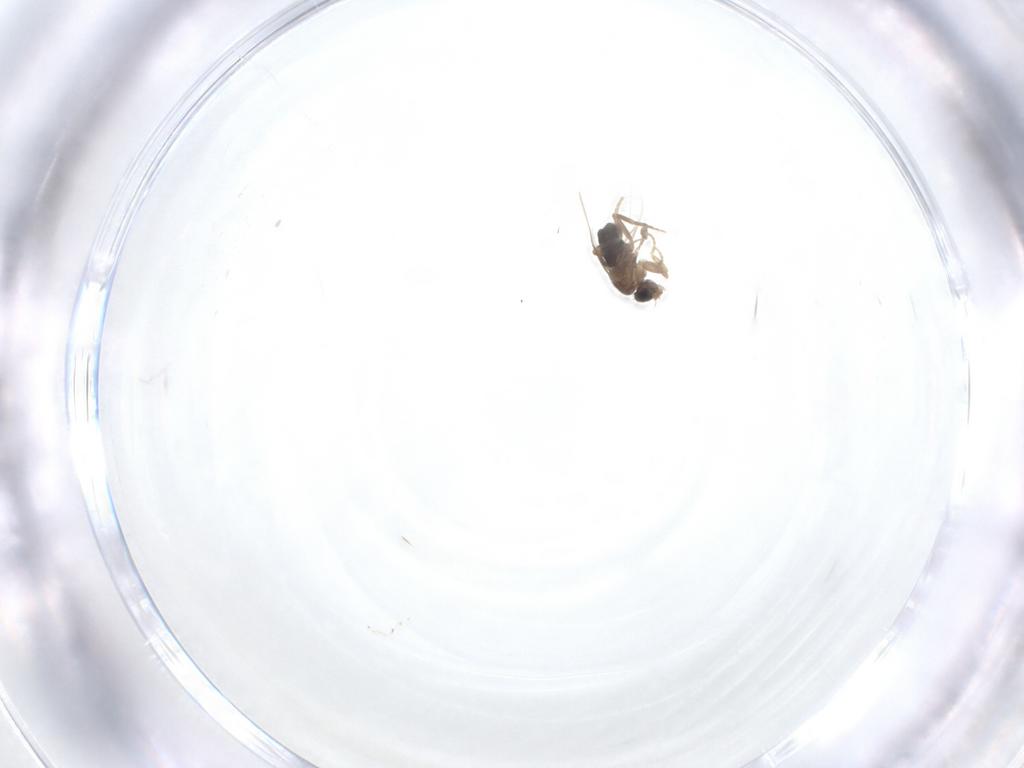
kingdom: Animalia
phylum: Arthropoda
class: Insecta
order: Diptera
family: Phoridae
